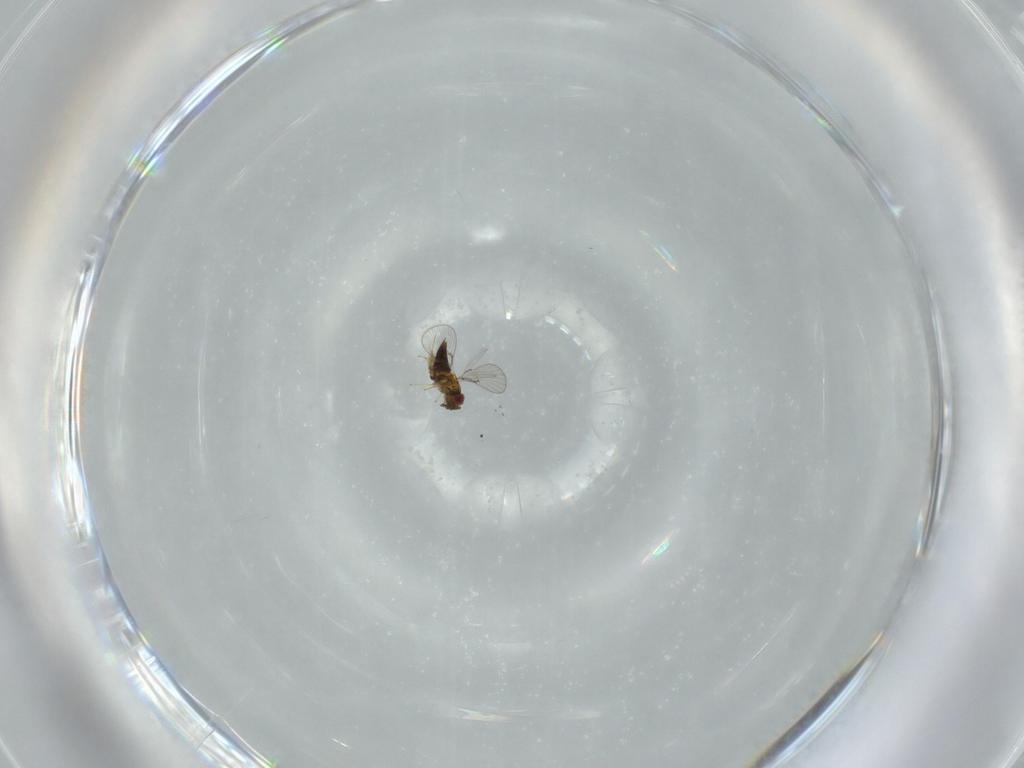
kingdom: Animalia
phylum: Arthropoda
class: Insecta
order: Hymenoptera
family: Trichogrammatidae
